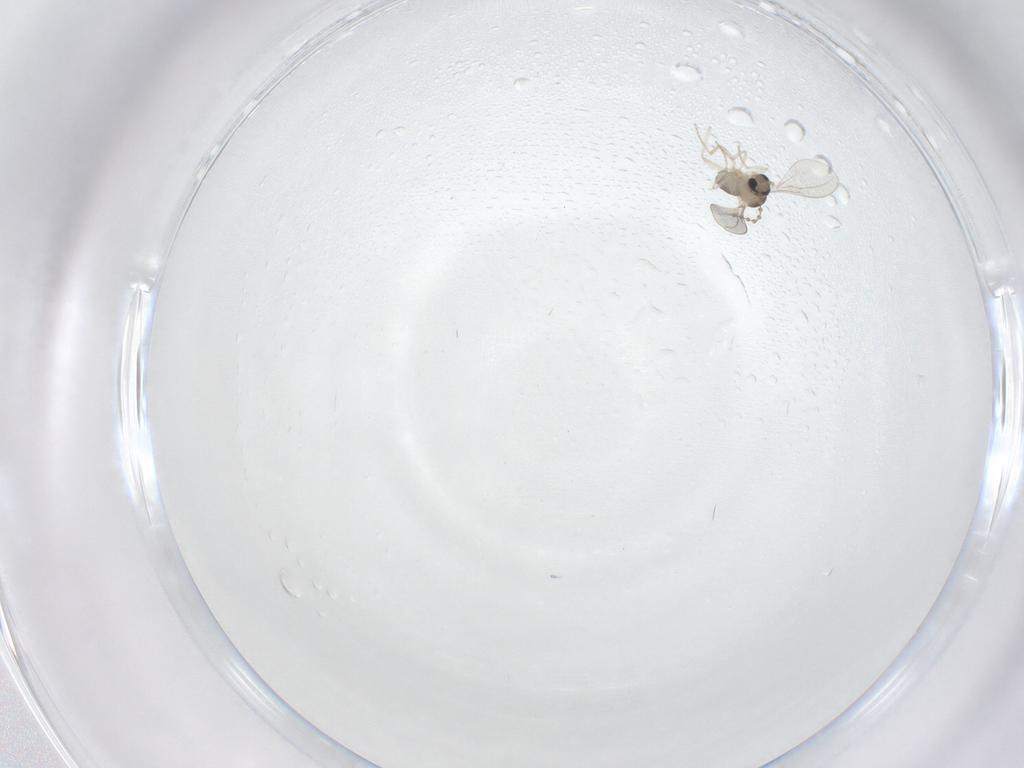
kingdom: Animalia
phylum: Arthropoda
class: Insecta
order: Diptera
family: Cecidomyiidae
